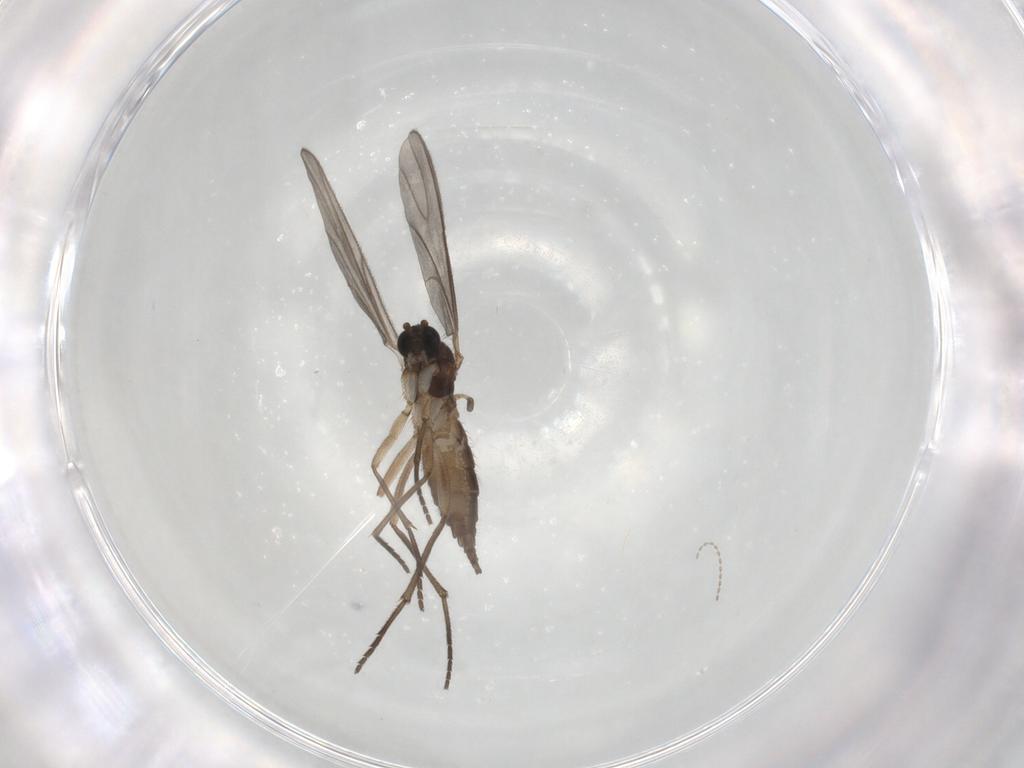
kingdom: Animalia
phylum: Arthropoda
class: Insecta
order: Diptera
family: Sciaridae
